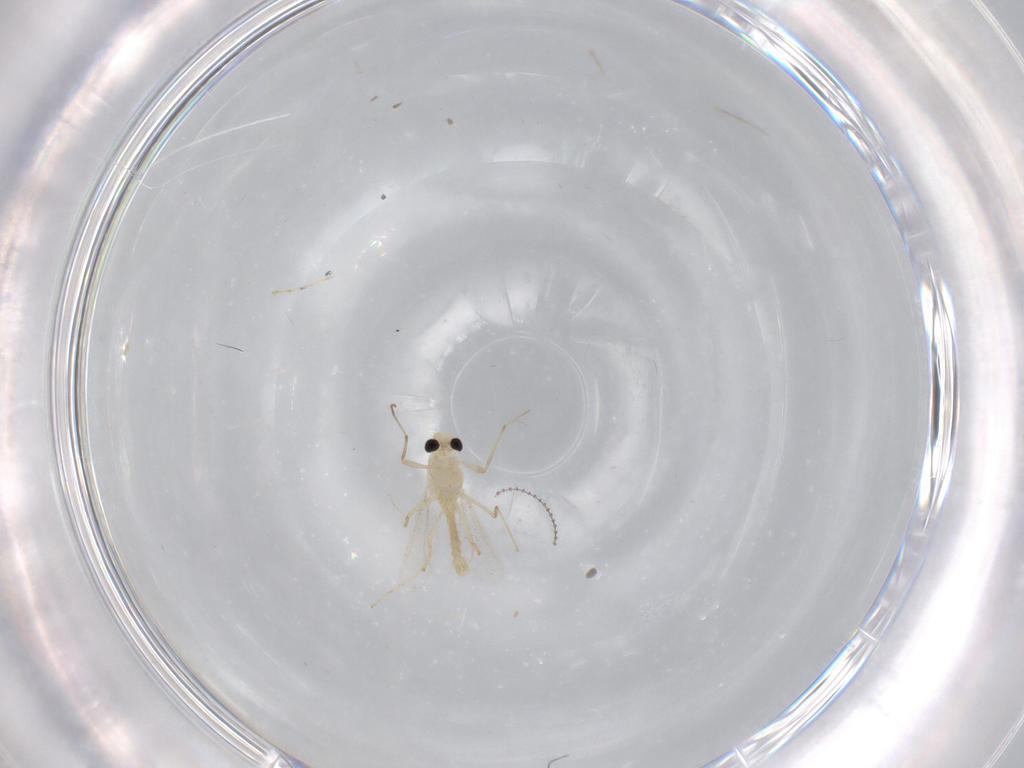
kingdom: Animalia
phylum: Arthropoda
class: Insecta
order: Diptera
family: Chironomidae
